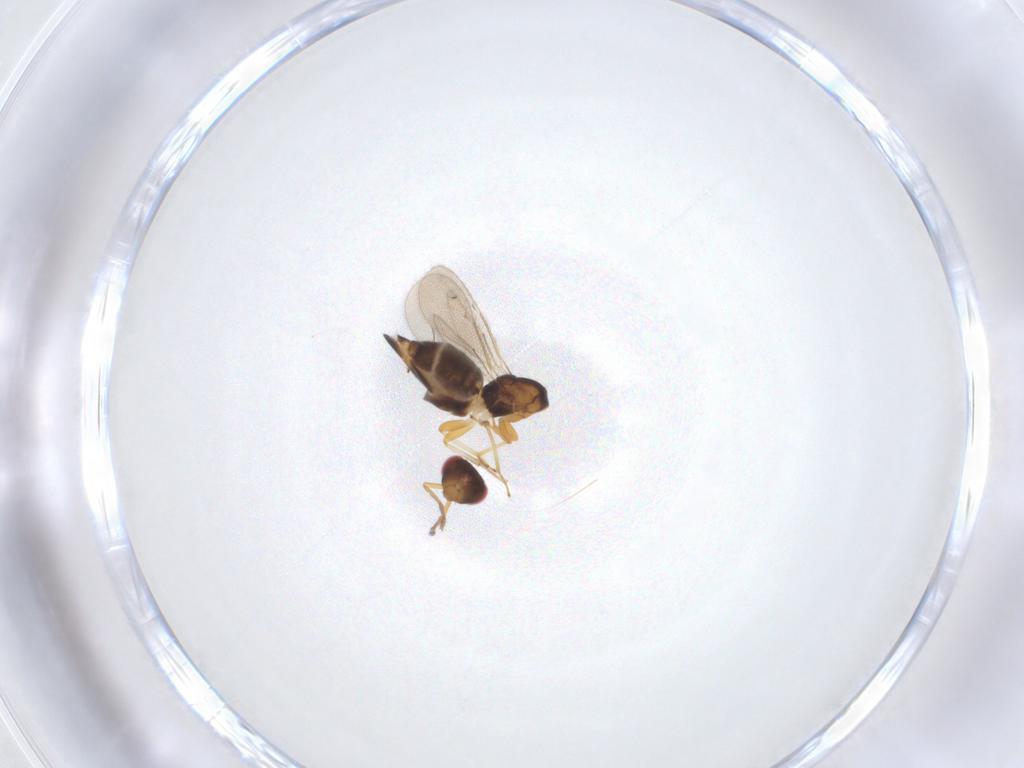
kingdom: Animalia
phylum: Arthropoda
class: Insecta
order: Hymenoptera
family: Eulophidae
